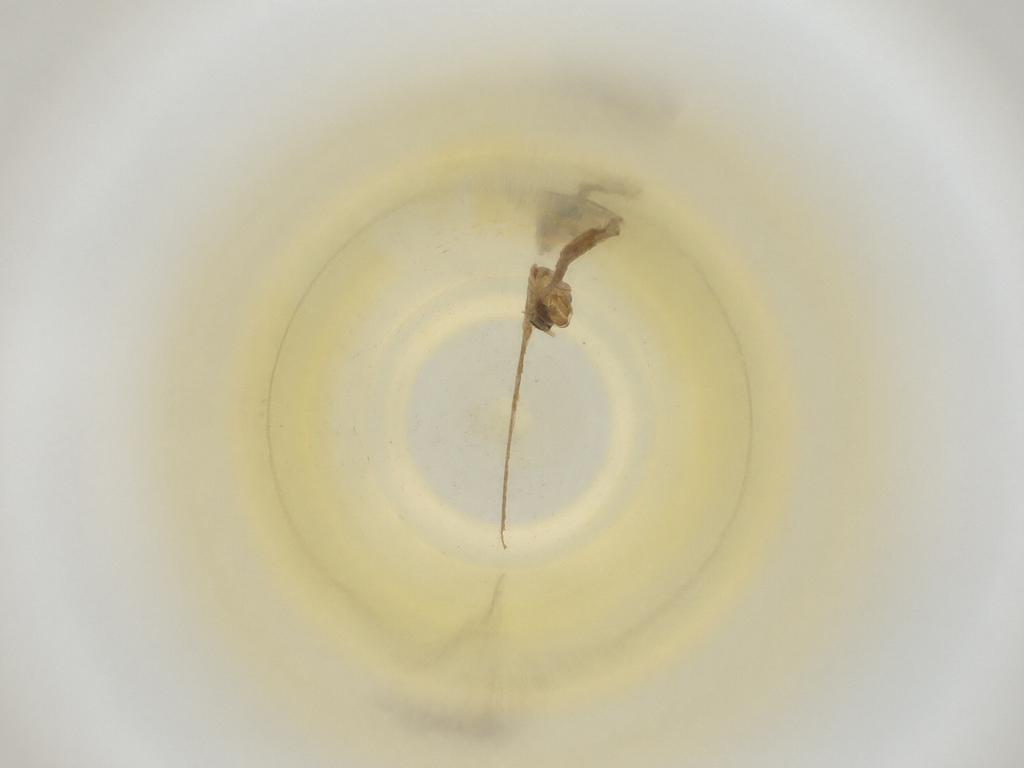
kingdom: Animalia
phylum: Arthropoda
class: Insecta
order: Diptera
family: Cecidomyiidae
